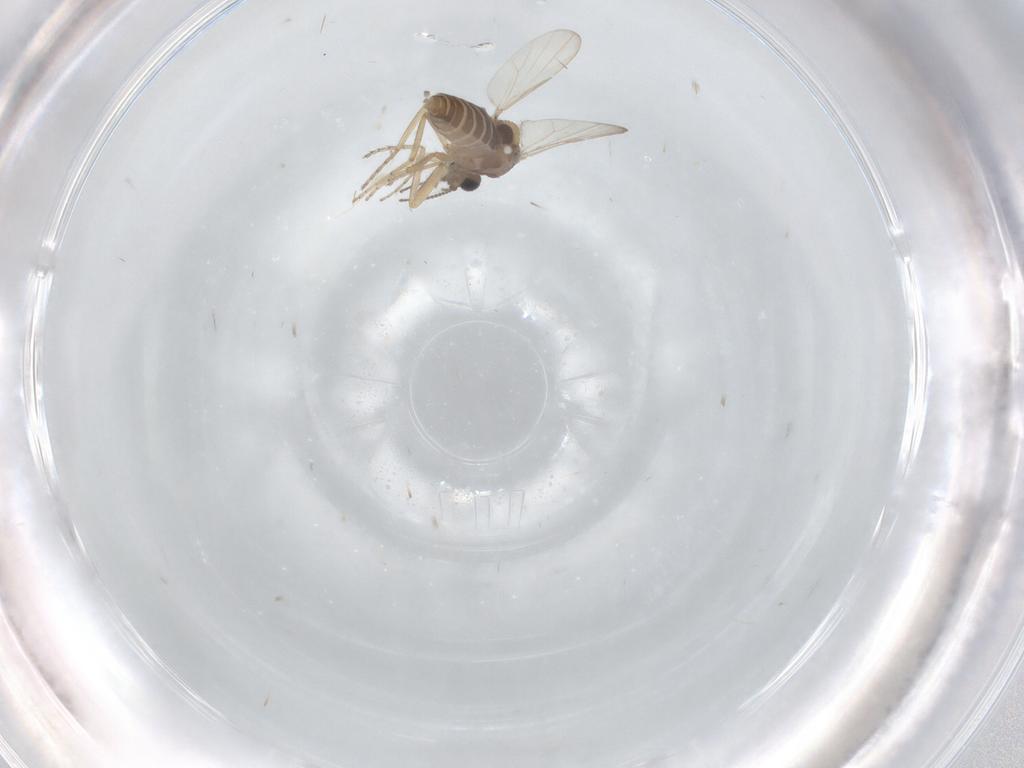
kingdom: Animalia
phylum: Arthropoda
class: Insecta
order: Diptera
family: Ceratopogonidae
